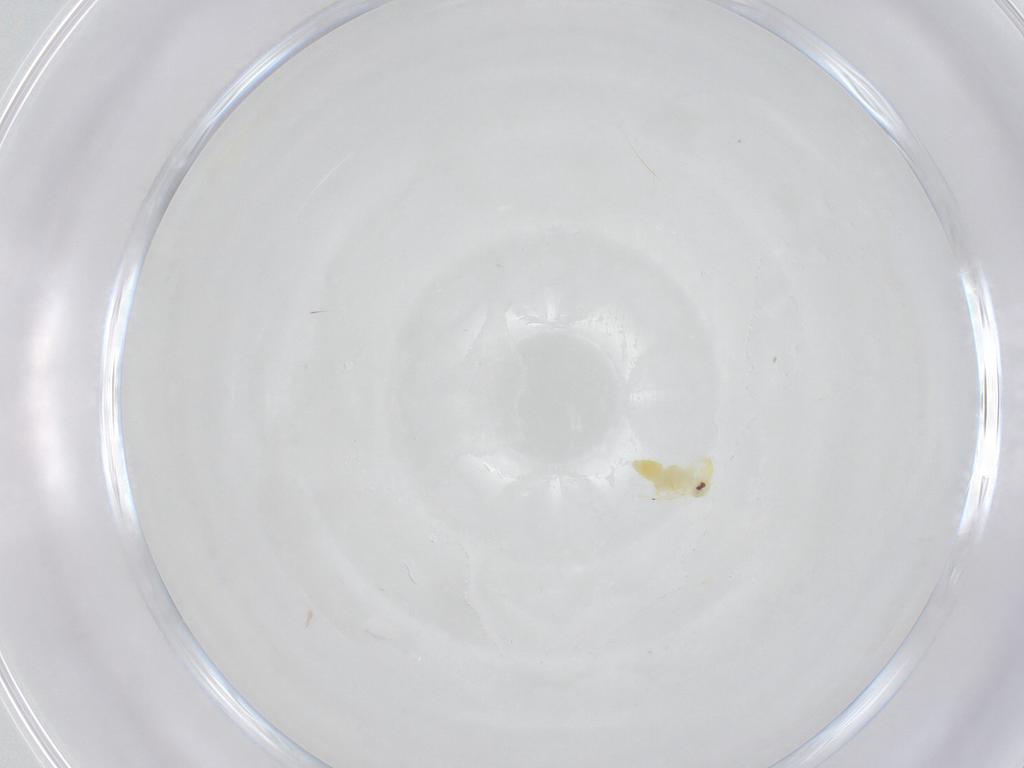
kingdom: Animalia
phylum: Arthropoda
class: Insecta
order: Hemiptera
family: Aleyrodidae
